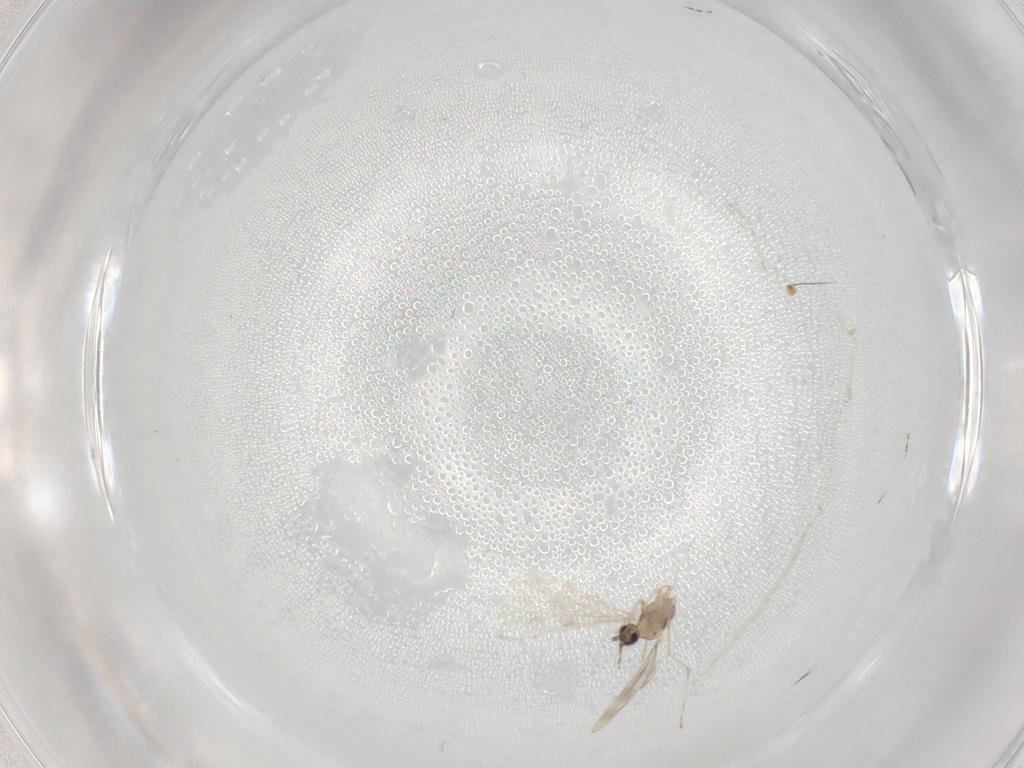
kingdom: Animalia
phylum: Arthropoda
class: Insecta
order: Diptera
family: Cecidomyiidae
